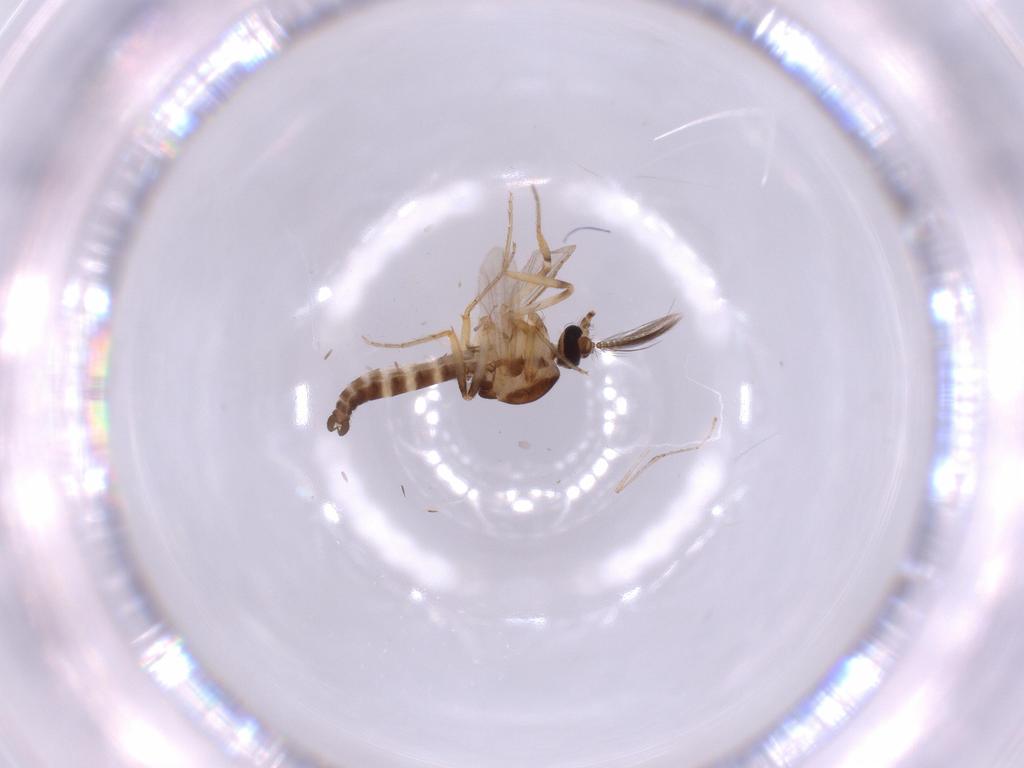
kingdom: Animalia
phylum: Arthropoda
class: Insecta
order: Diptera
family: Ceratopogonidae
